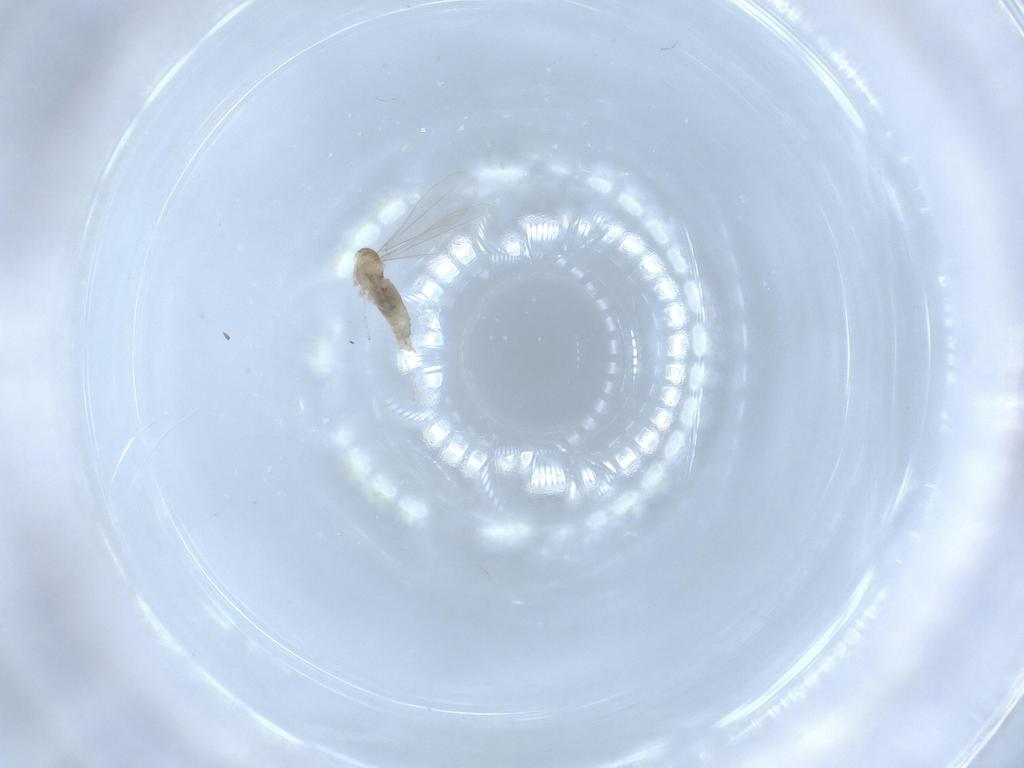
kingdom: Animalia
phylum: Arthropoda
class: Insecta
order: Diptera
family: Cecidomyiidae
